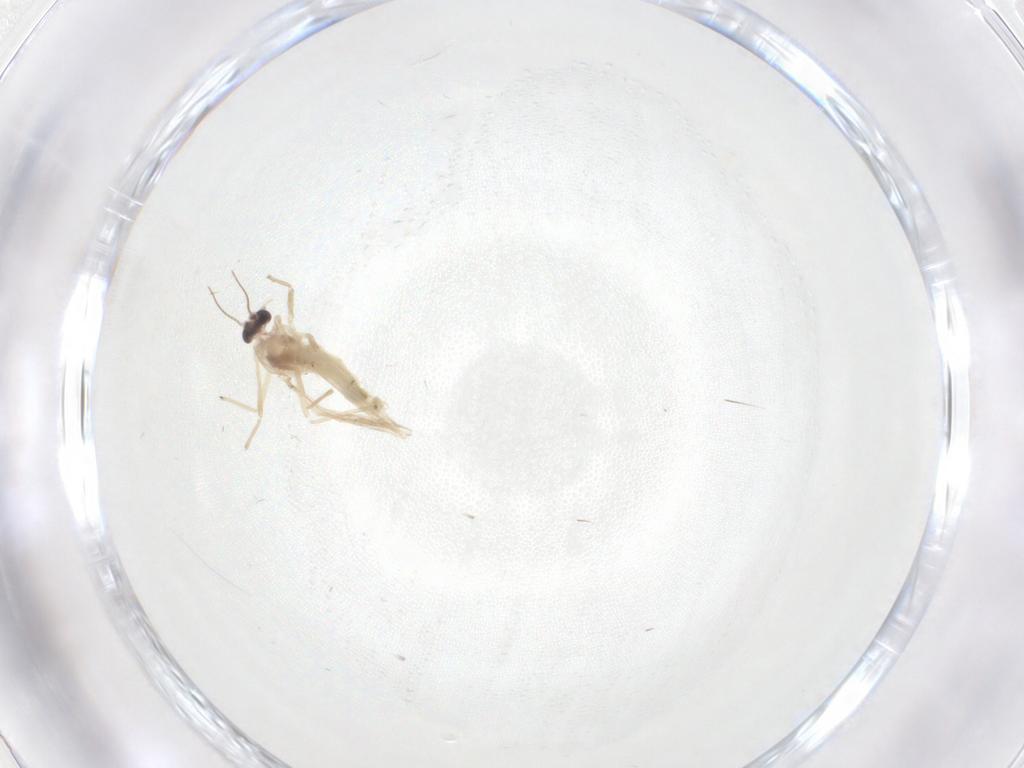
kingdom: Animalia
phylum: Arthropoda
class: Insecta
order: Diptera
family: Chironomidae
